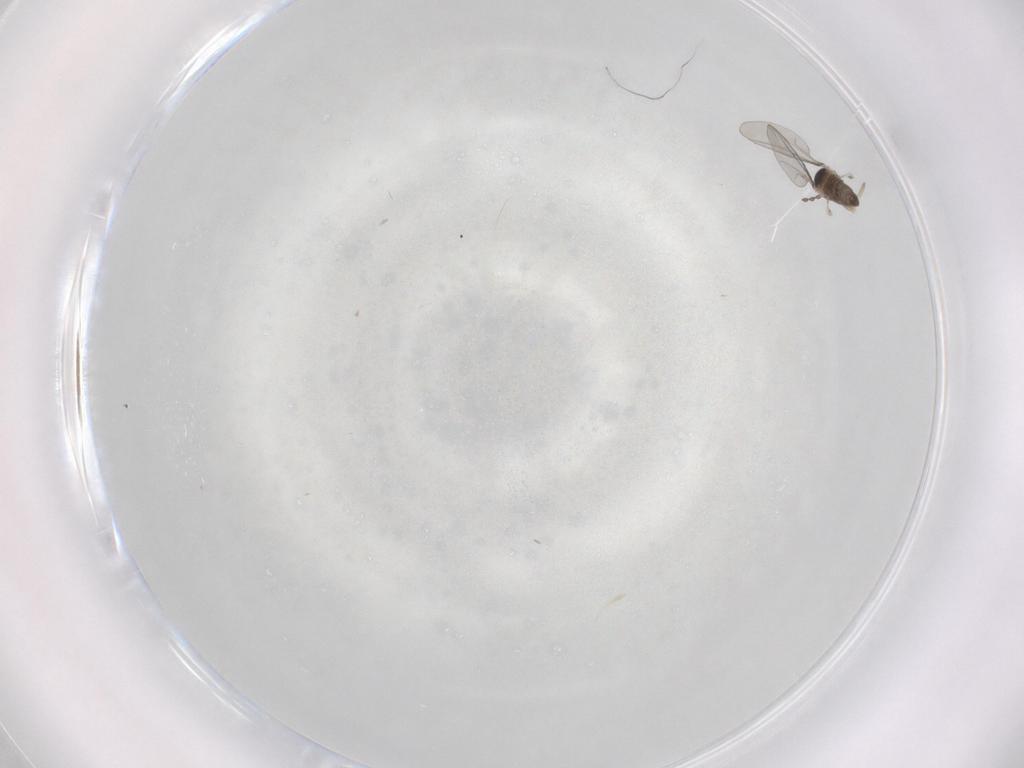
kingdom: Animalia
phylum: Arthropoda
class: Insecta
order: Diptera
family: Cecidomyiidae
